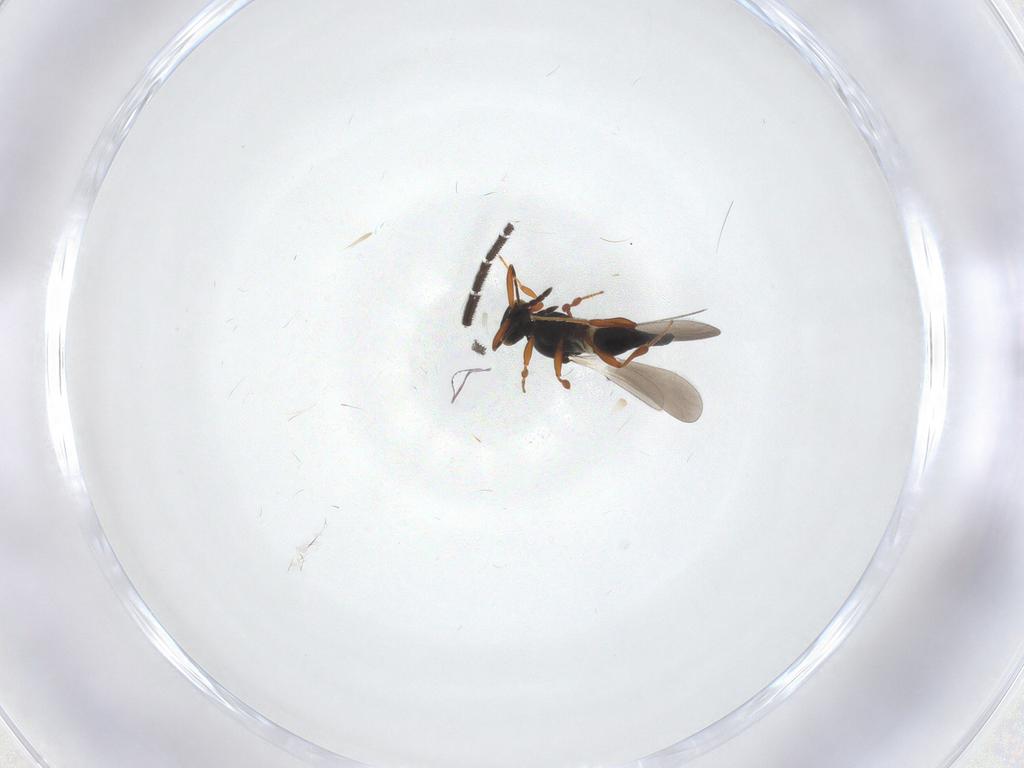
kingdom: Animalia
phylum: Arthropoda
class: Insecta
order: Hymenoptera
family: Platygastridae
